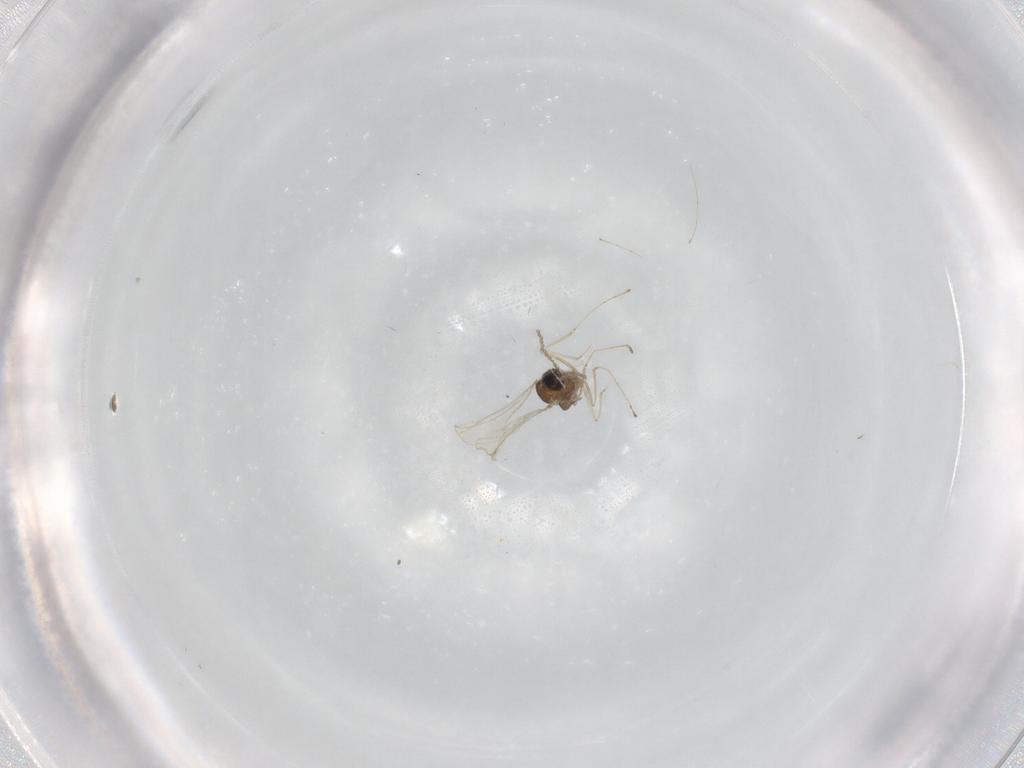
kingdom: Animalia
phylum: Arthropoda
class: Insecta
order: Diptera
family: Cecidomyiidae
